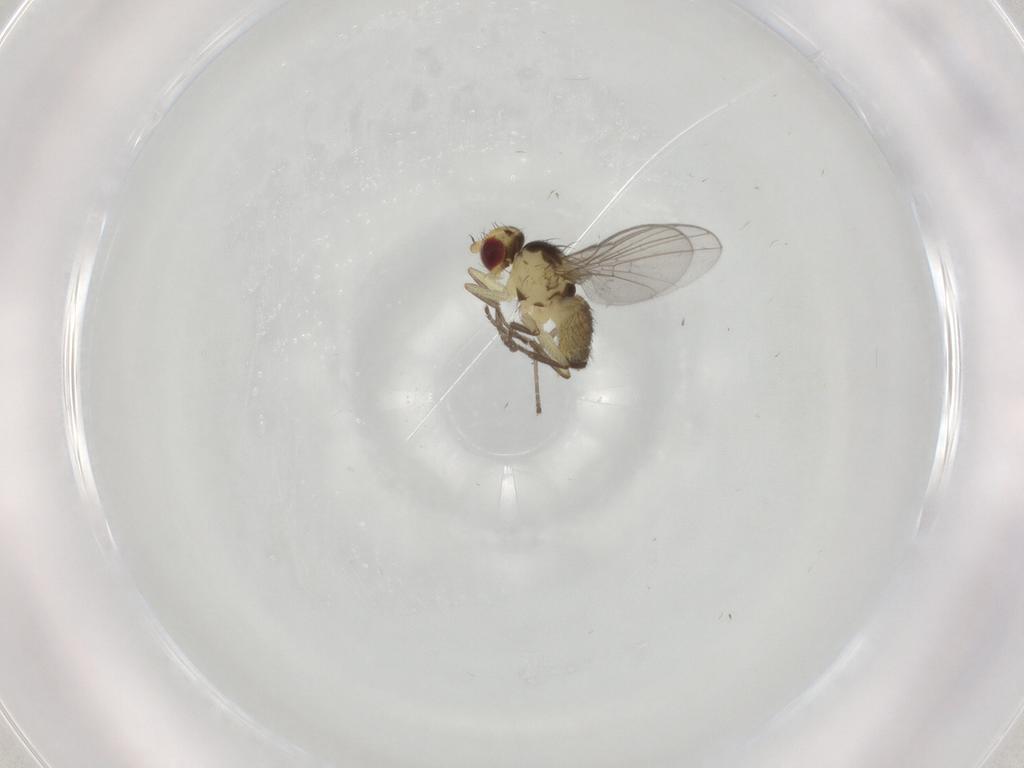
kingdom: Animalia
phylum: Arthropoda
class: Insecta
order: Diptera
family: Agromyzidae
